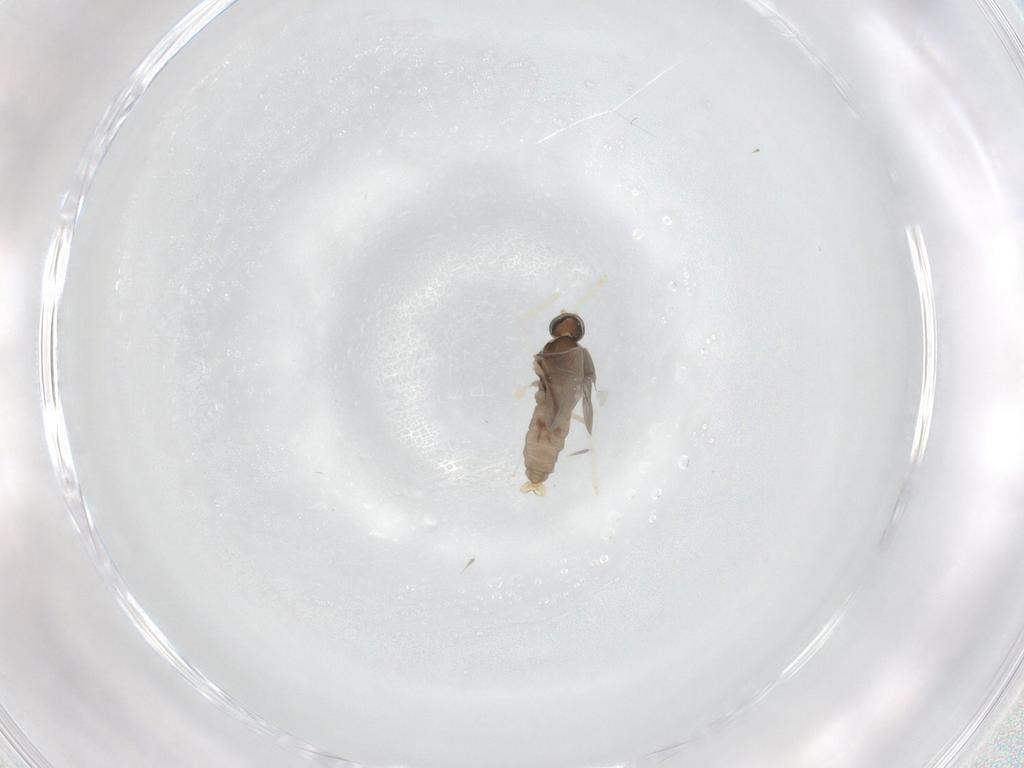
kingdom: Animalia
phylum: Arthropoda
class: Insecta
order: Diptera
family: Cecidomyiidae
